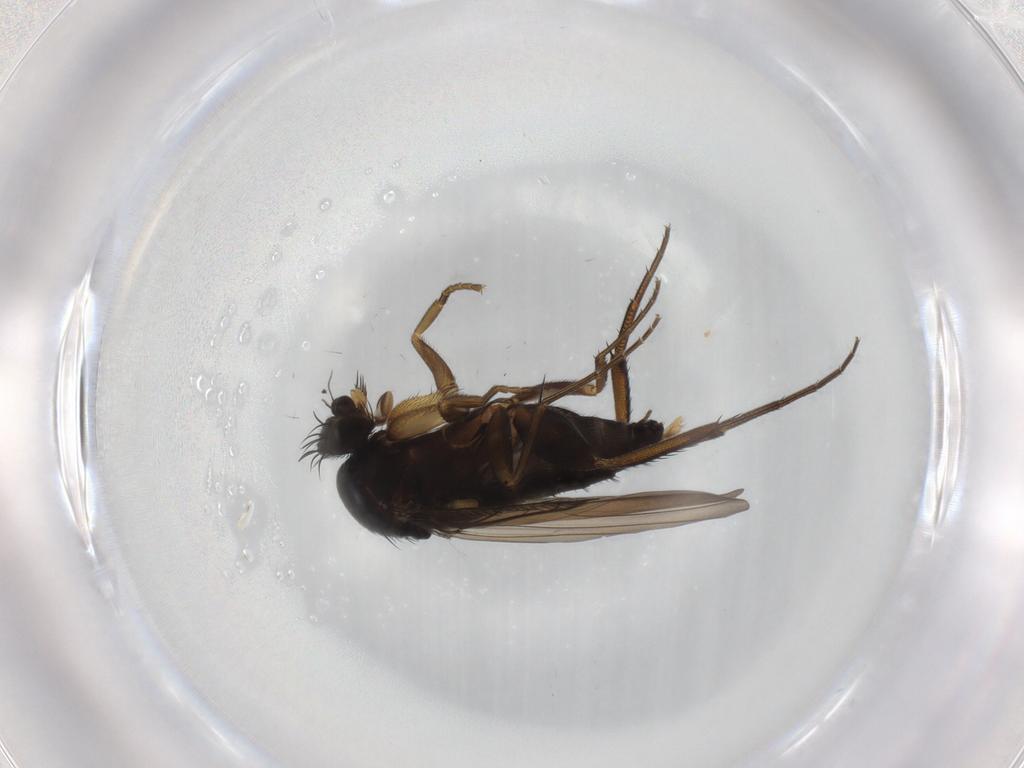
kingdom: Animalia
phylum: Arthropoda
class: Insecta
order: Diptera
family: Phoridae
